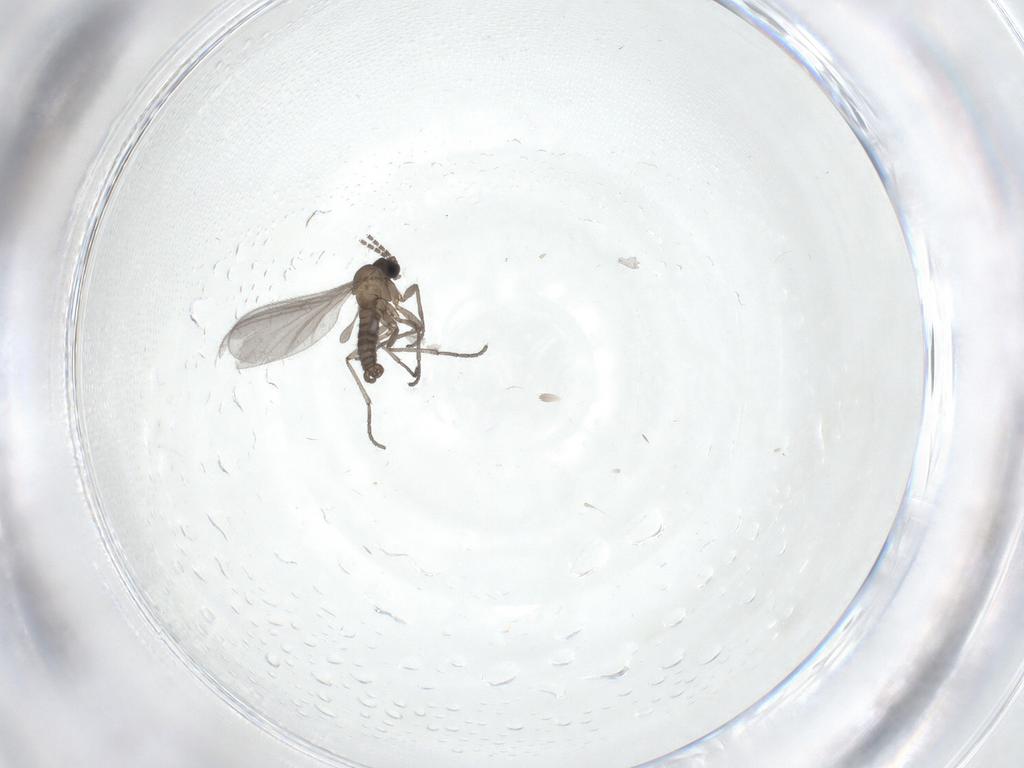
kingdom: Animalia
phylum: Arthropoda
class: Insecta
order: Diptera
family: Sciaridae
